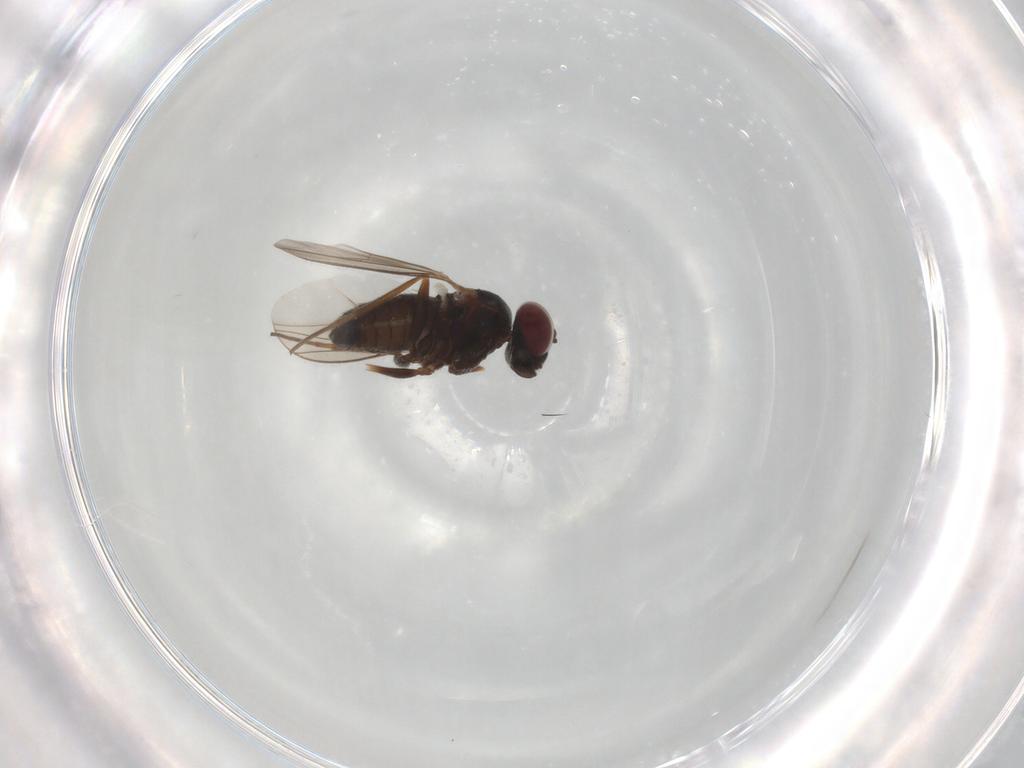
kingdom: Animalia
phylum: Arthropoda
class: Insecta
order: Diptera
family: Dolichopodidae
